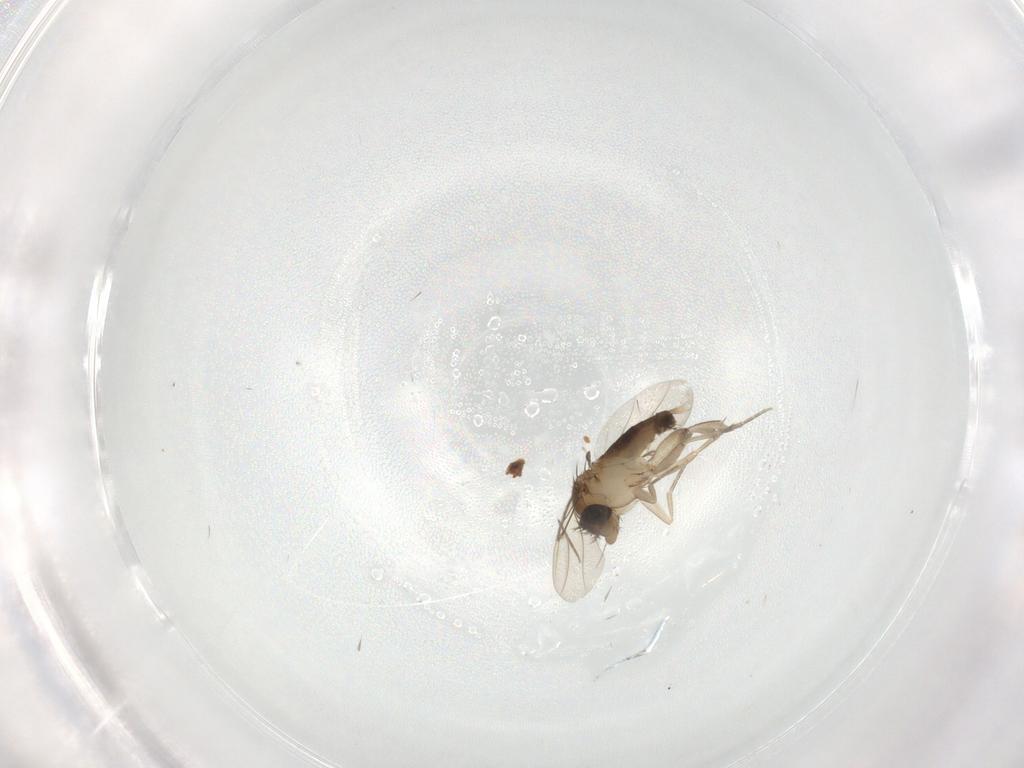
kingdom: Animalia
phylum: Arthropoda
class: Insecta
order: Diptera
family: Phoridae
